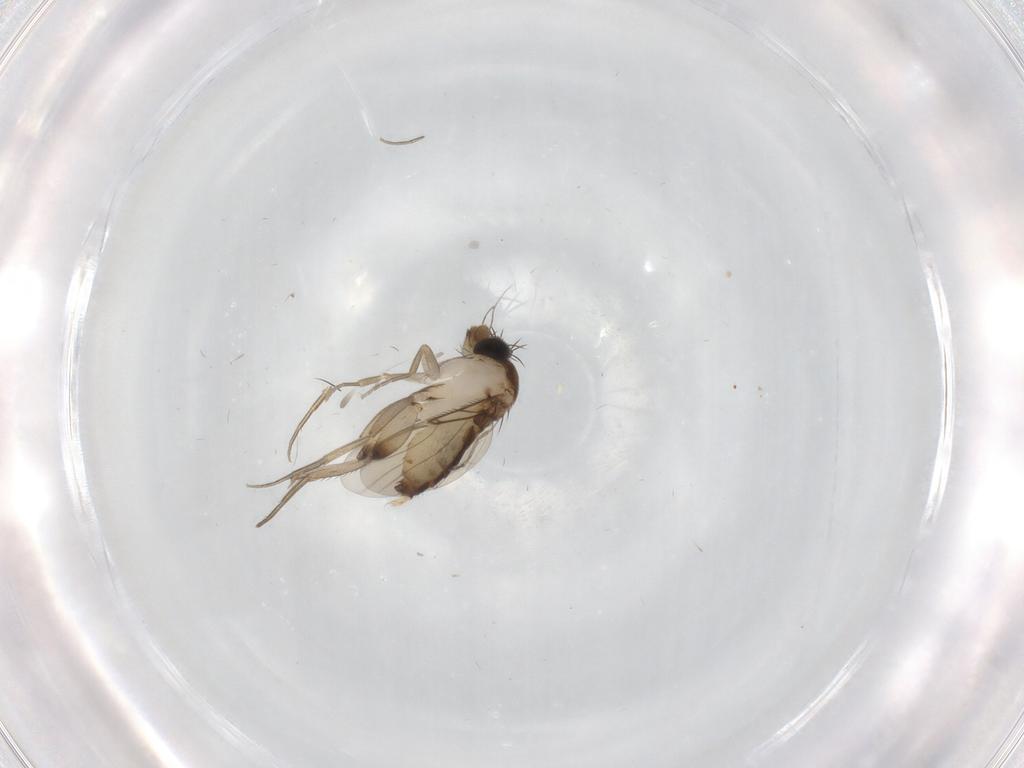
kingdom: Animalia
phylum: Arthropoda
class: Insecta
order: Diptera
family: Phoridae
